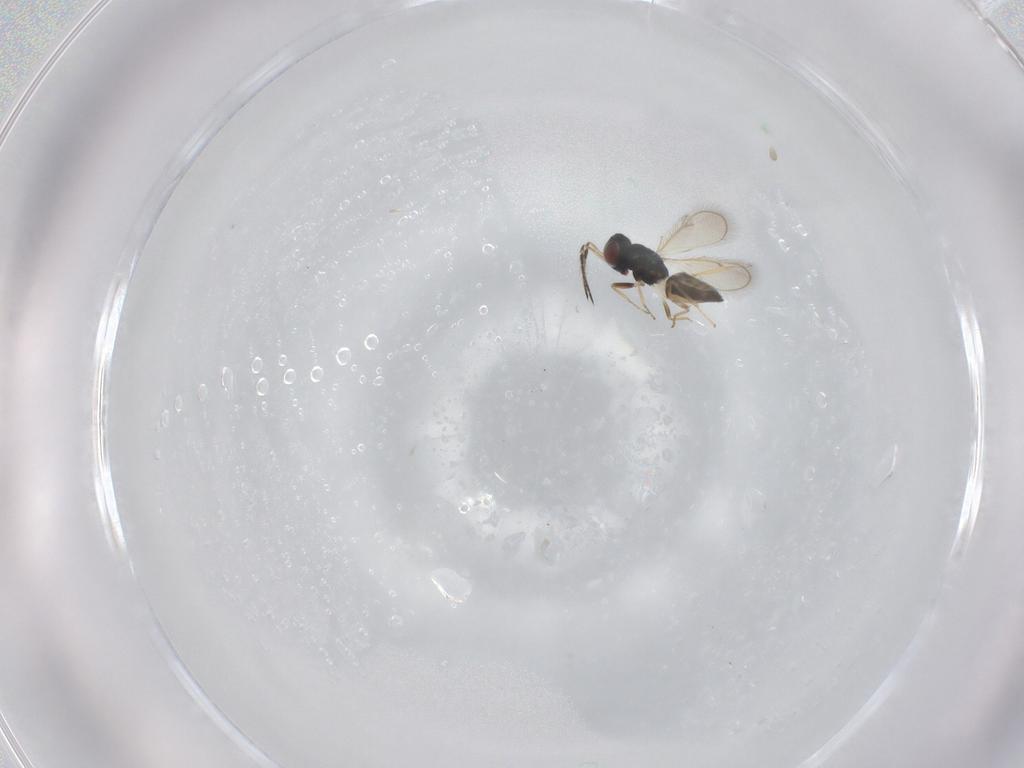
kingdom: Animalia
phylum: Arthropoda
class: Insecta
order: Hymenoptera
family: Eulophidae
